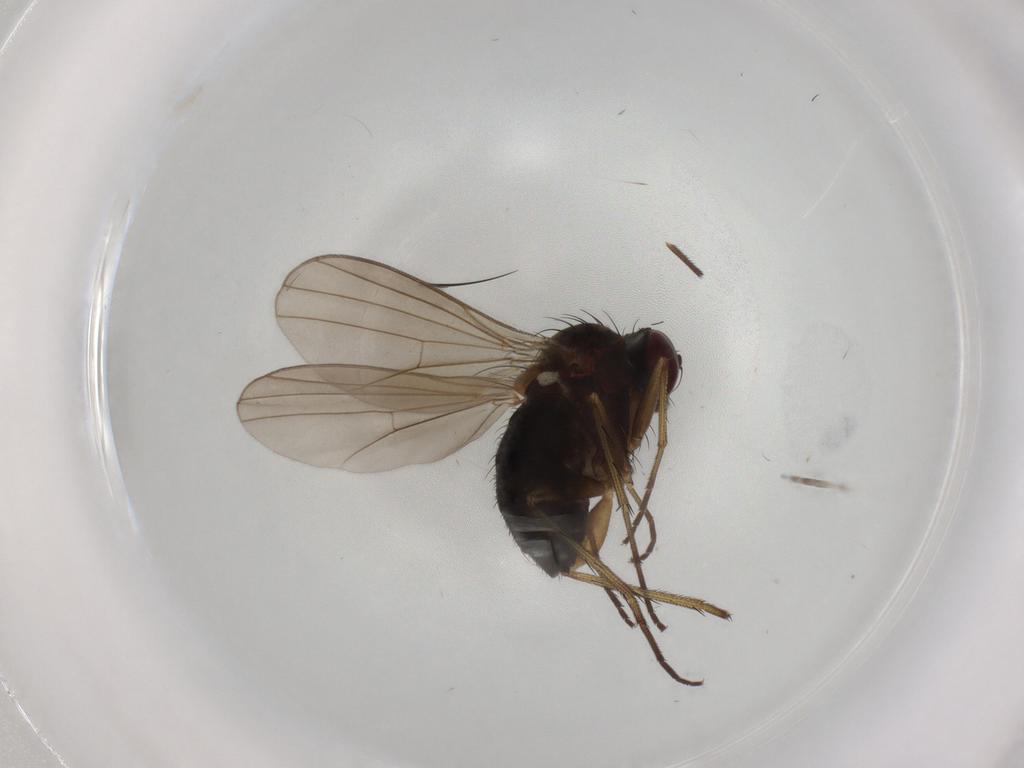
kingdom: Animalia
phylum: Arthropoda
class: Insecta
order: Diptera
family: Dolichopodidae
